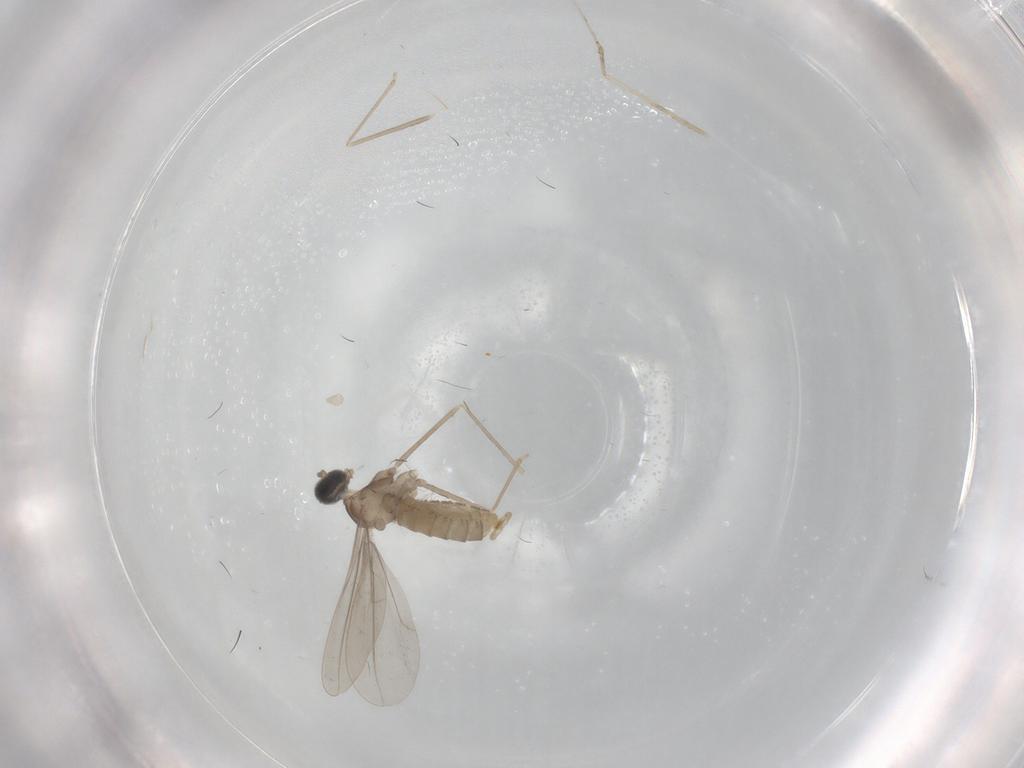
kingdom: Animalia
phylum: Arthropoda
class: Insecta
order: Diptera
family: Cecidomyiidae
